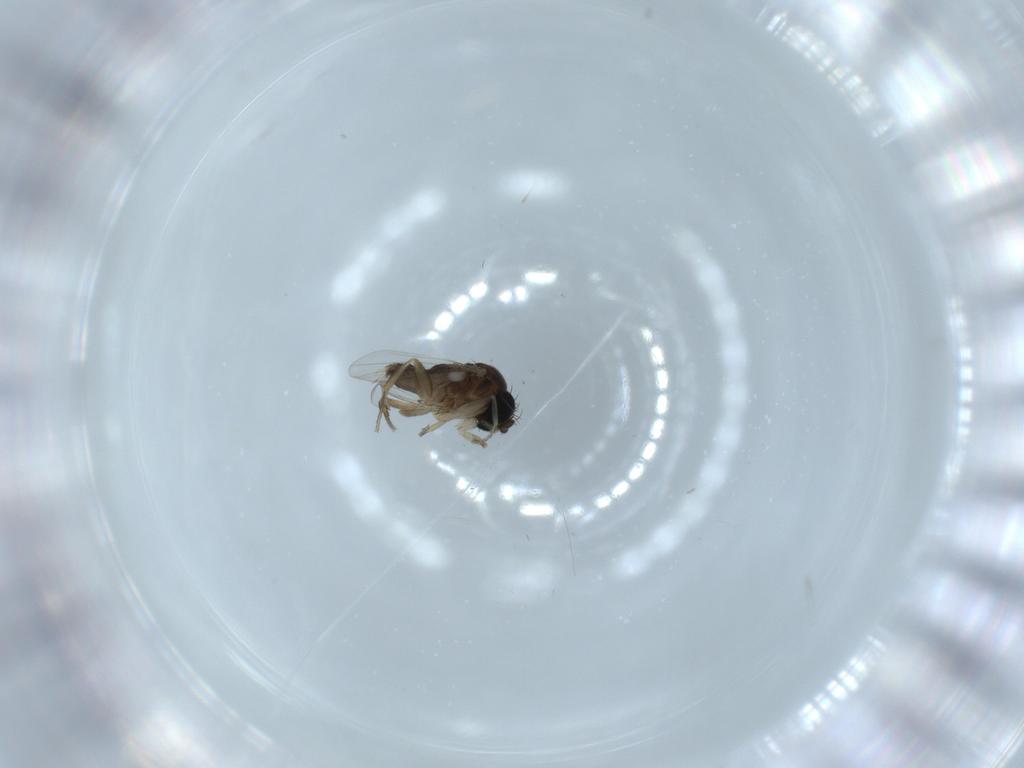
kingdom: Animalia
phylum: Arthropoda
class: Insecta
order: Diptera
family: Phoridae
